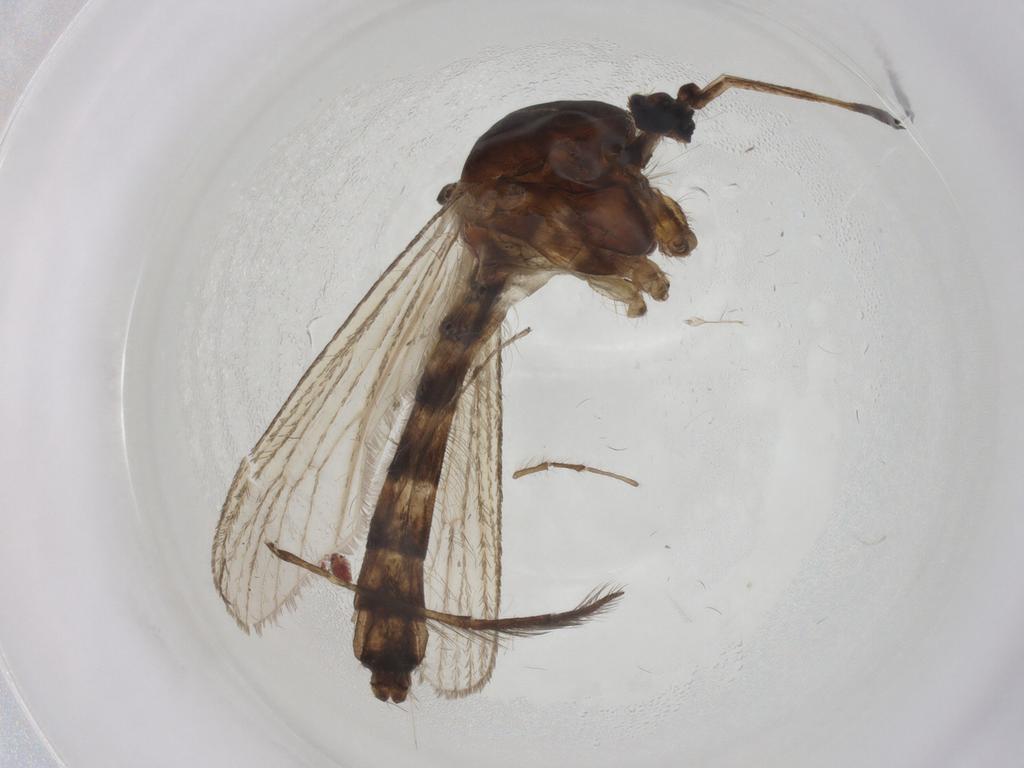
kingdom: Animalia
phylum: Arthropoda
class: Insecta
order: Diptera
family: Culicidae
